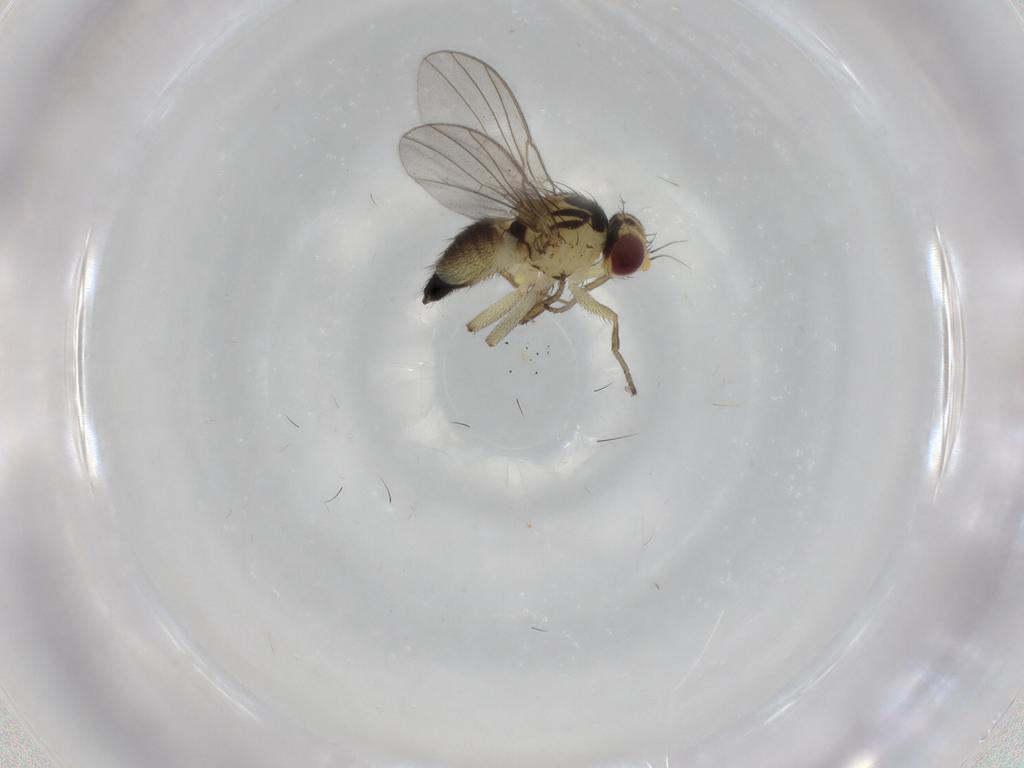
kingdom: Animalia
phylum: Arthropoda
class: Insecta
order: Diptera
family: Agromyzidae
